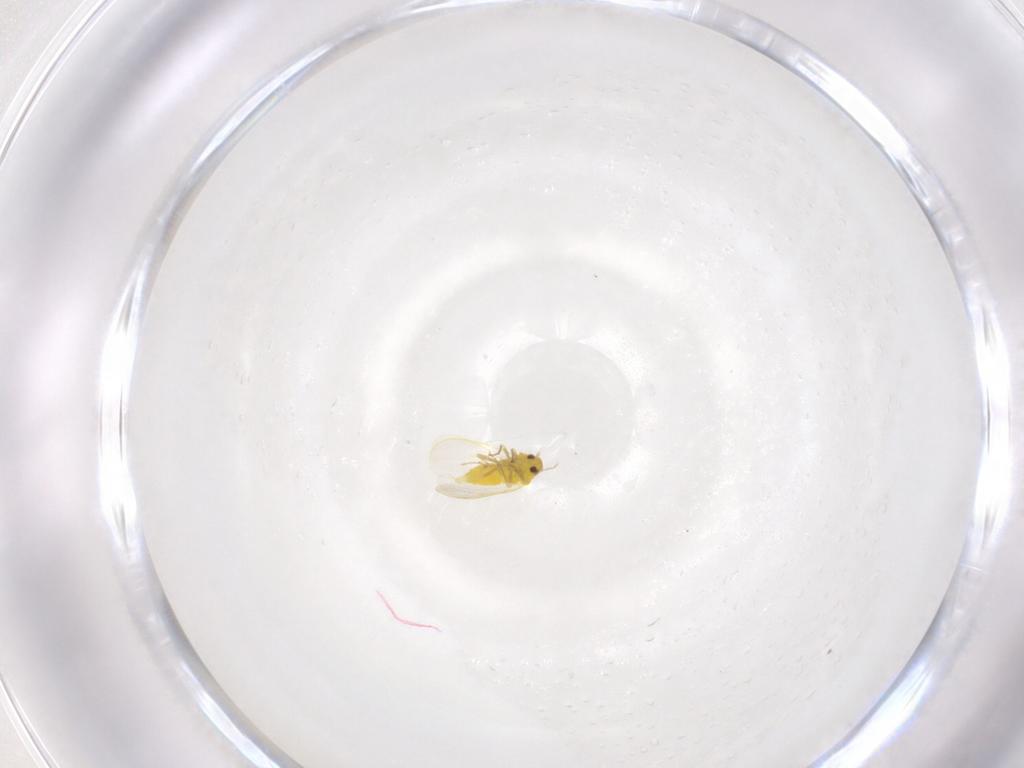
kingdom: Animalia
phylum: Arthropoda
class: Insecta
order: Hemiptera
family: Aleyrodidae
